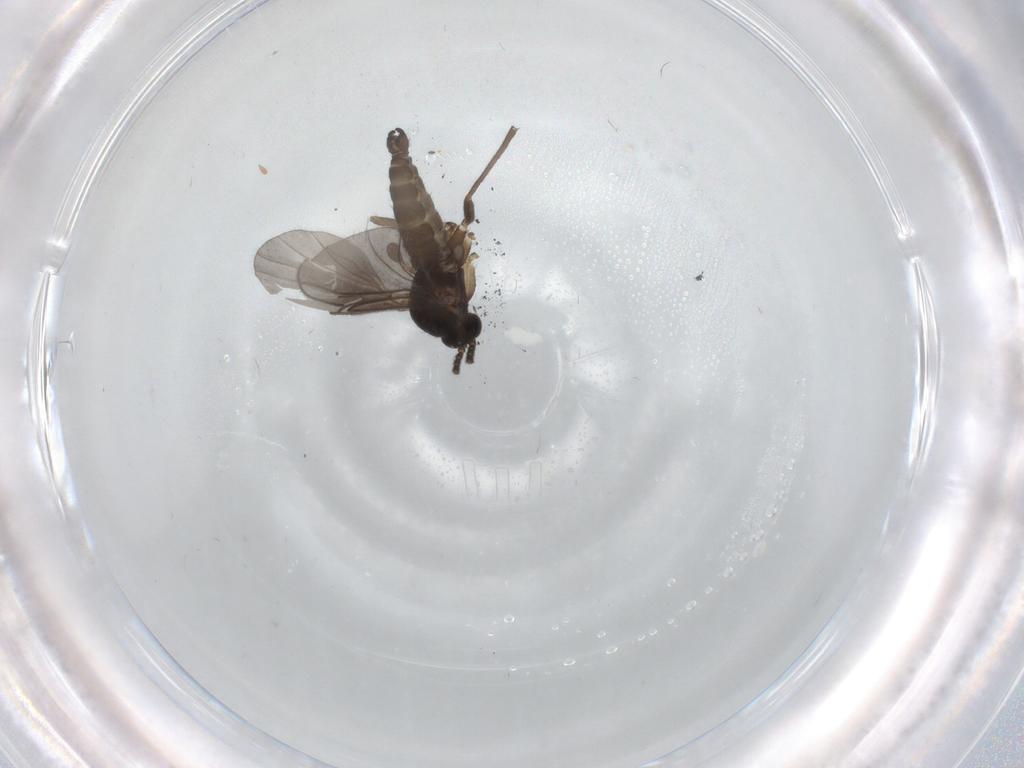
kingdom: Animalia
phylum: Arthropoda
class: Insecta
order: Diptera
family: Sciaridae
